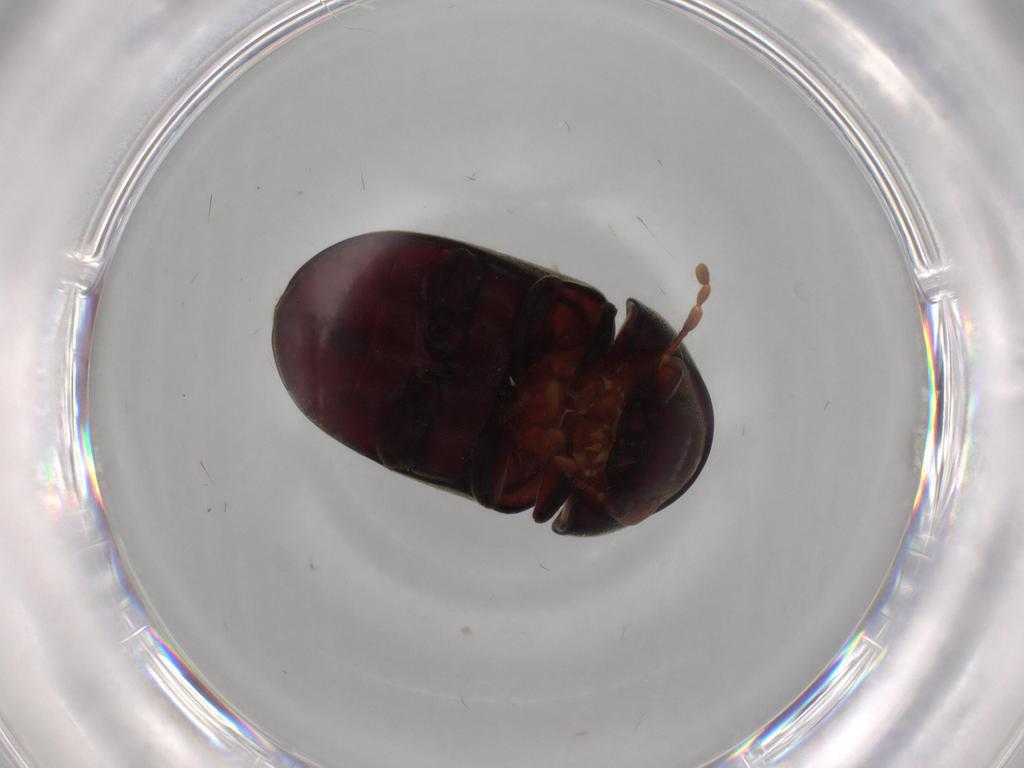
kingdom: Animalia
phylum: Arthropoda
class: Insecta
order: Coleoptera
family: Ptinidae
